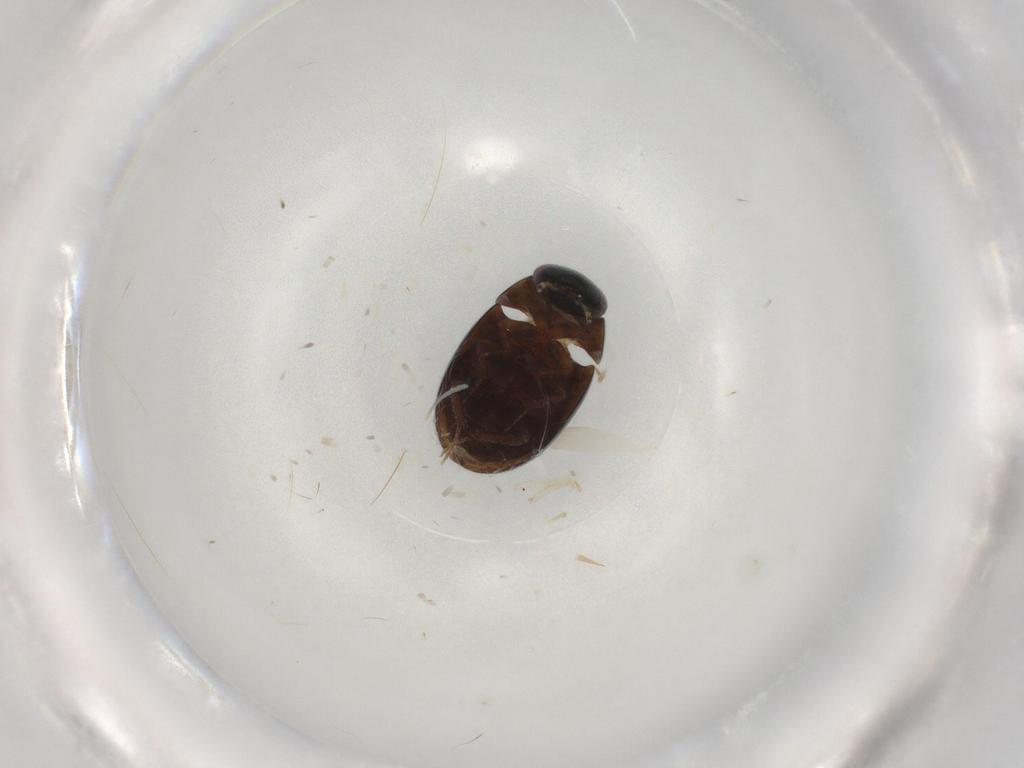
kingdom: Animalia
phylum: Arthropoda
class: Insecta
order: Coleoptera
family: Hydrophilidae
